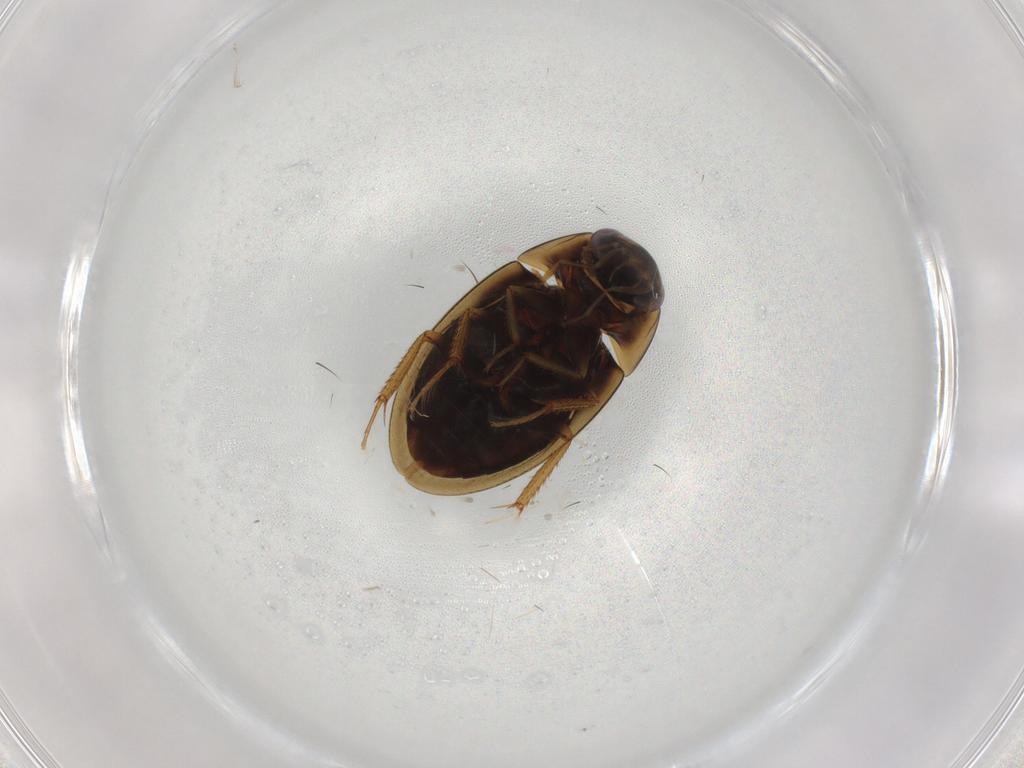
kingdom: Animalia
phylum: Arthropoda
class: Insecta
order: Coleoptera
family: Hydrophilidae
